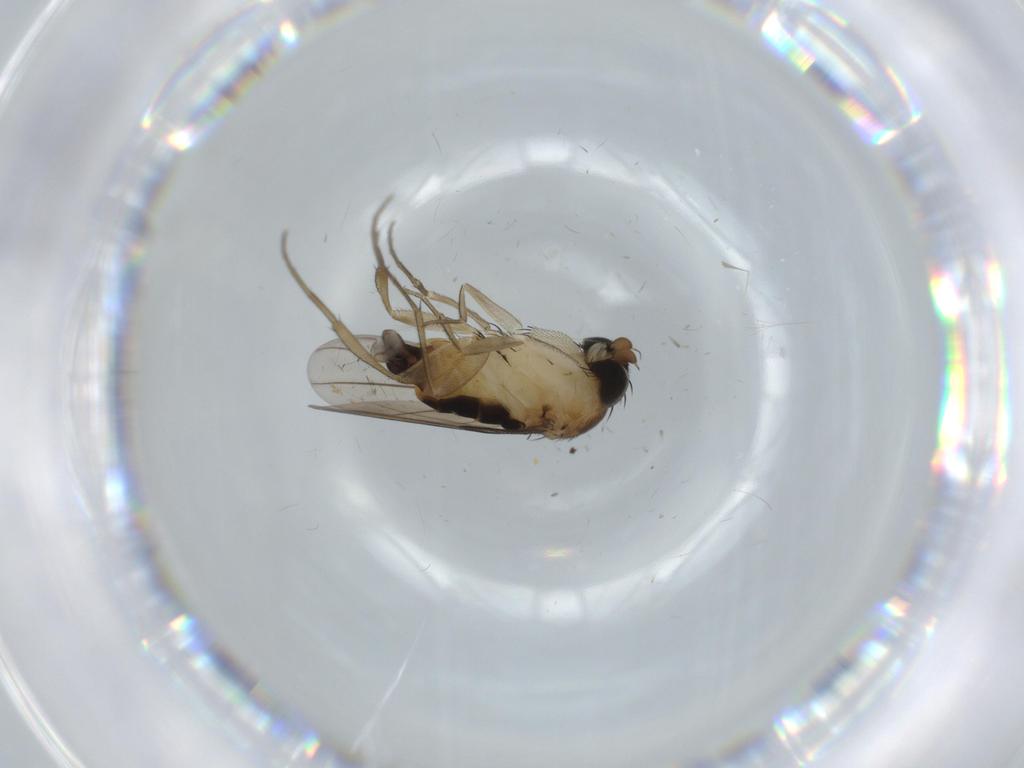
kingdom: Animalia
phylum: Arthropoda
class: Insecta
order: Diptera
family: Phoridae
